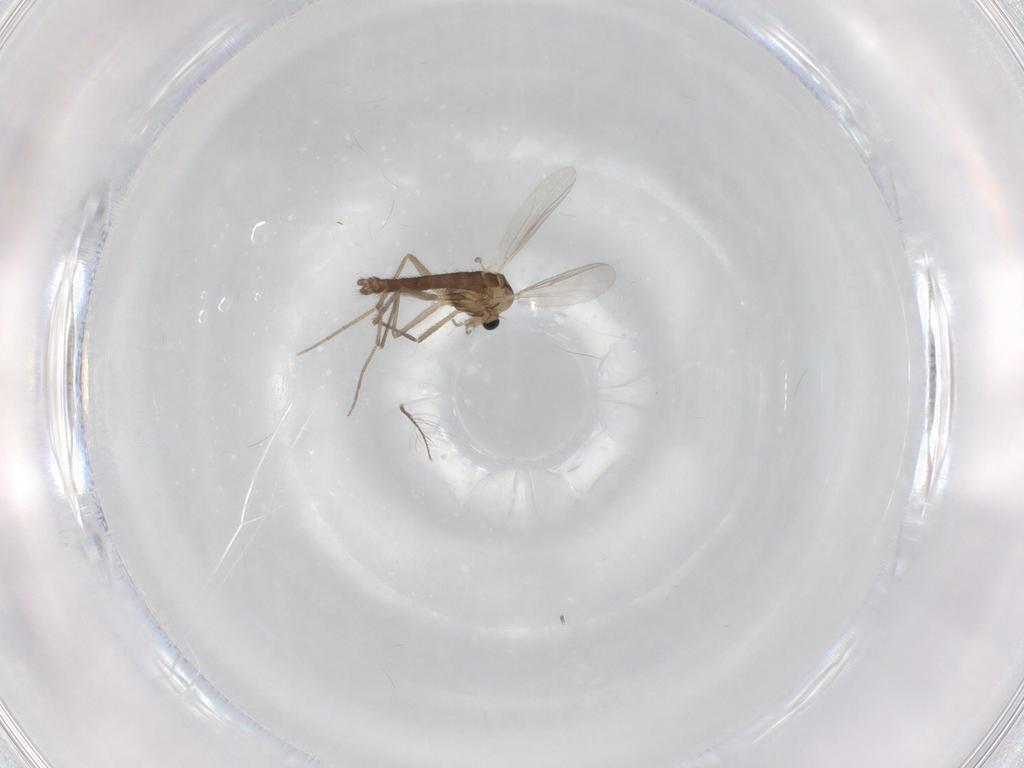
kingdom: Animalia
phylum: Arthropoda
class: Insecta
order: Diptera
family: Chironomidae
